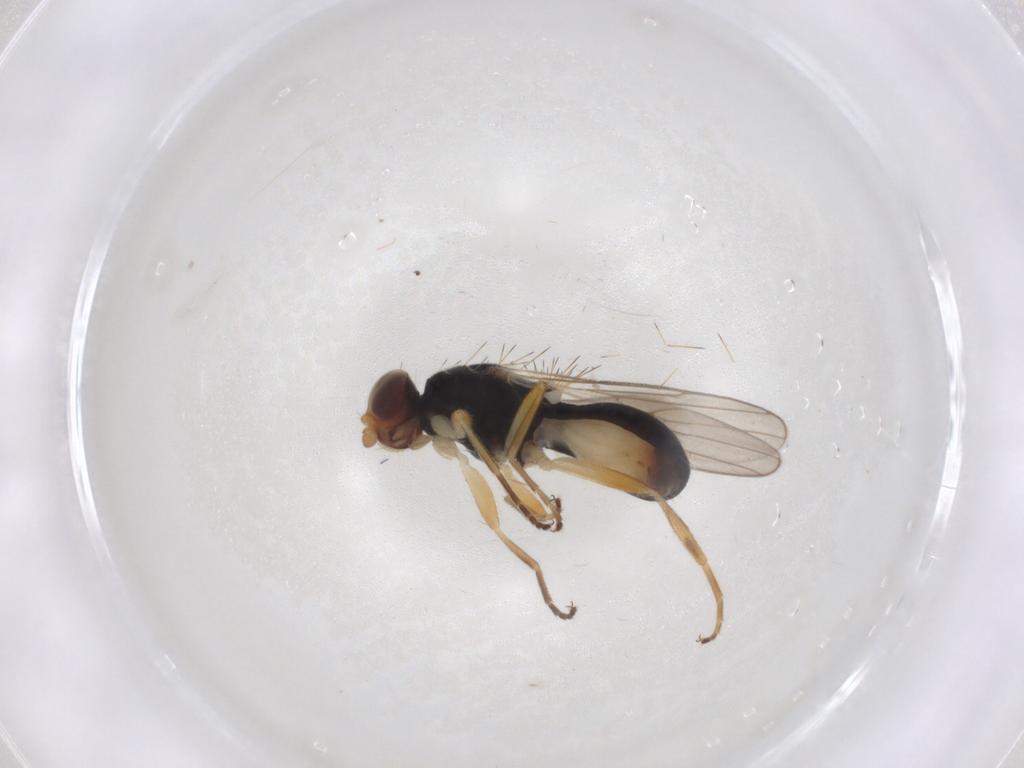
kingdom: Animalia
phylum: Arthropoda
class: Insecta
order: Diptera
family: Chloropidae
